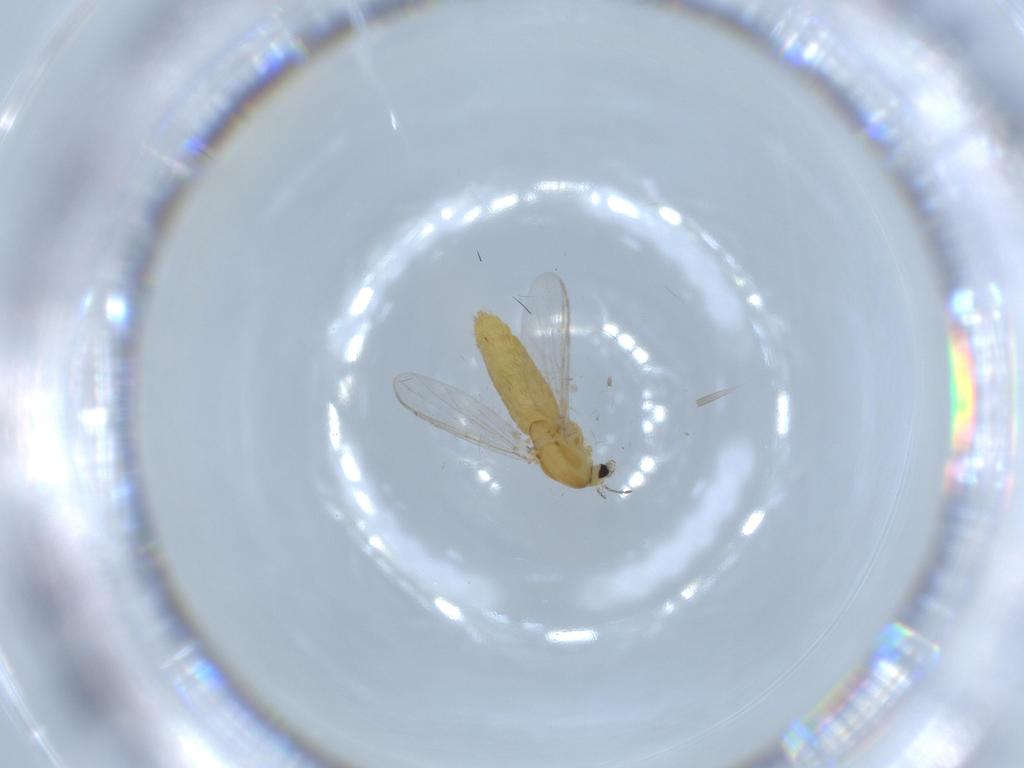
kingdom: Animalia
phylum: Arthropoda
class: Insecta
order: Diptera
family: Chironomidae
